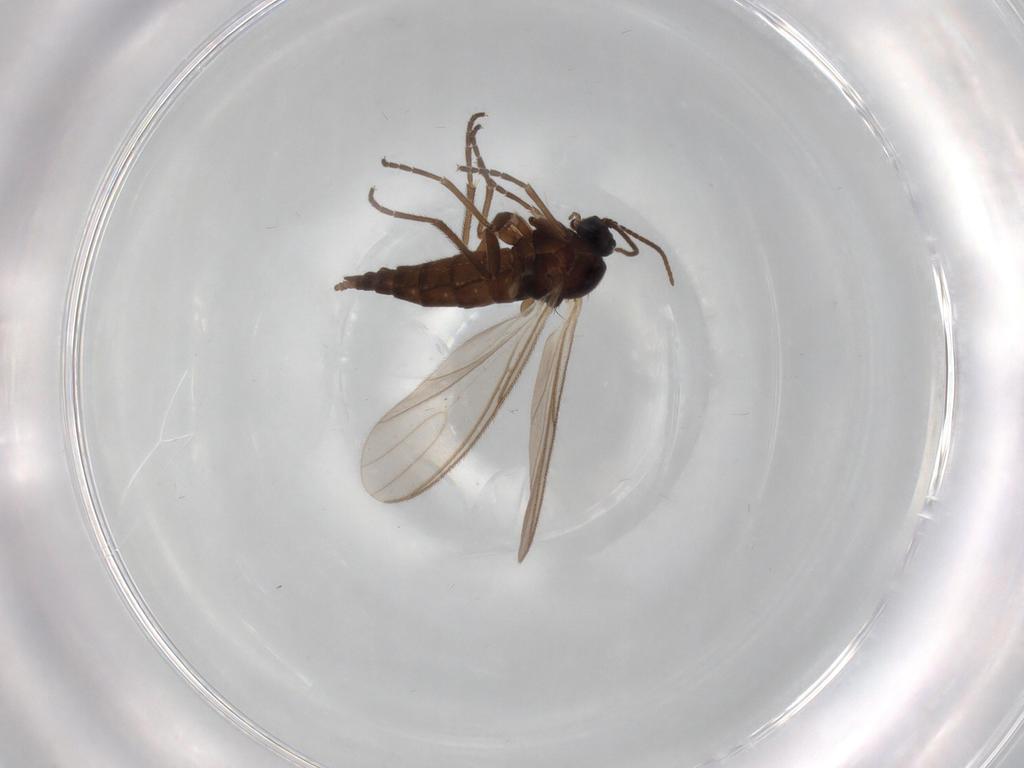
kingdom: Animalia
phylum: Arthropoda
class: Insecta
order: Diptera
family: Sciaridae
